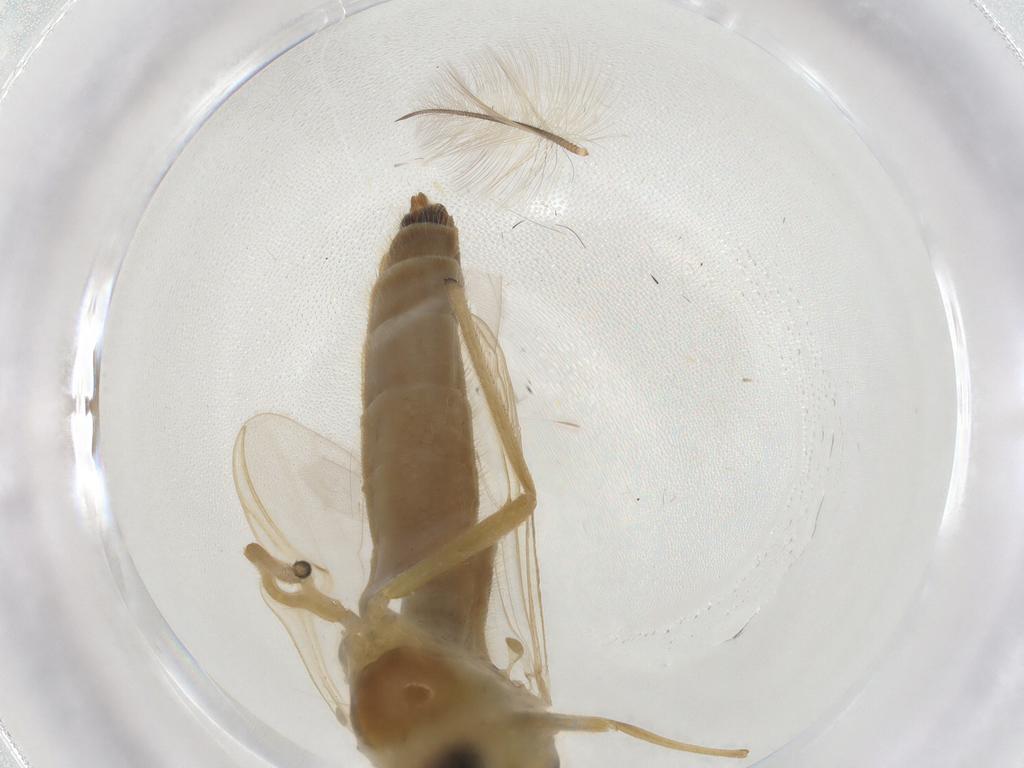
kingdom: Animalia
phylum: Arthropoda
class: Insecta
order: Diptera
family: Chironomidae
